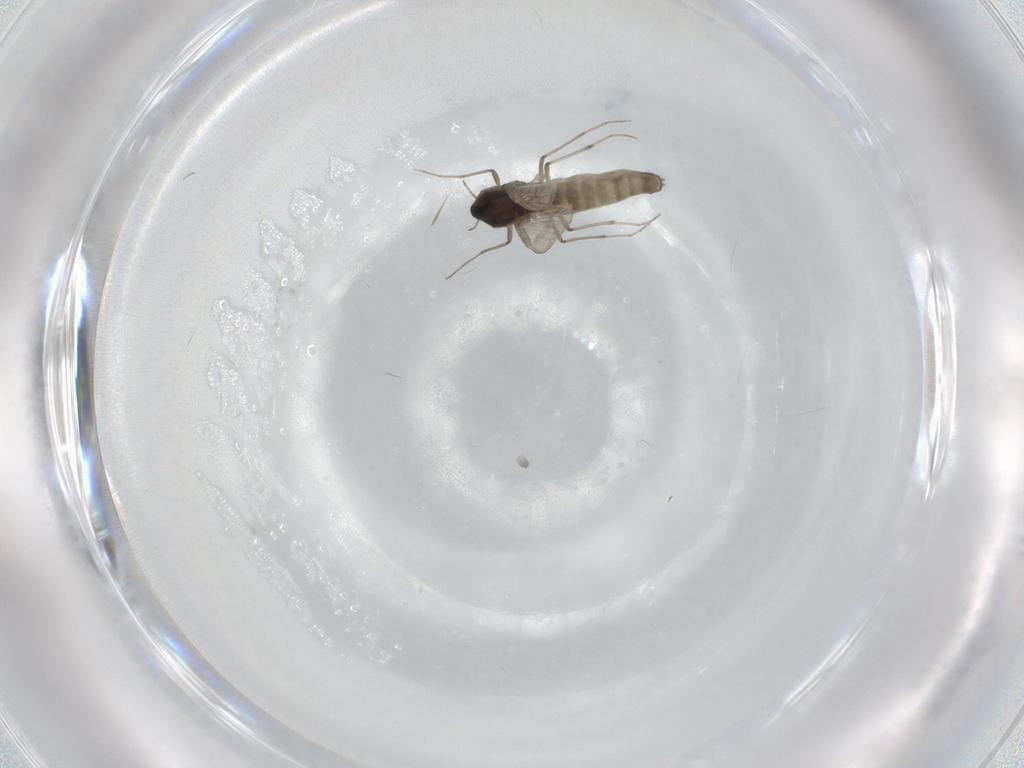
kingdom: Animalia
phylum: Arthropoda
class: Insecta
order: Diptera
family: Chironomidae
